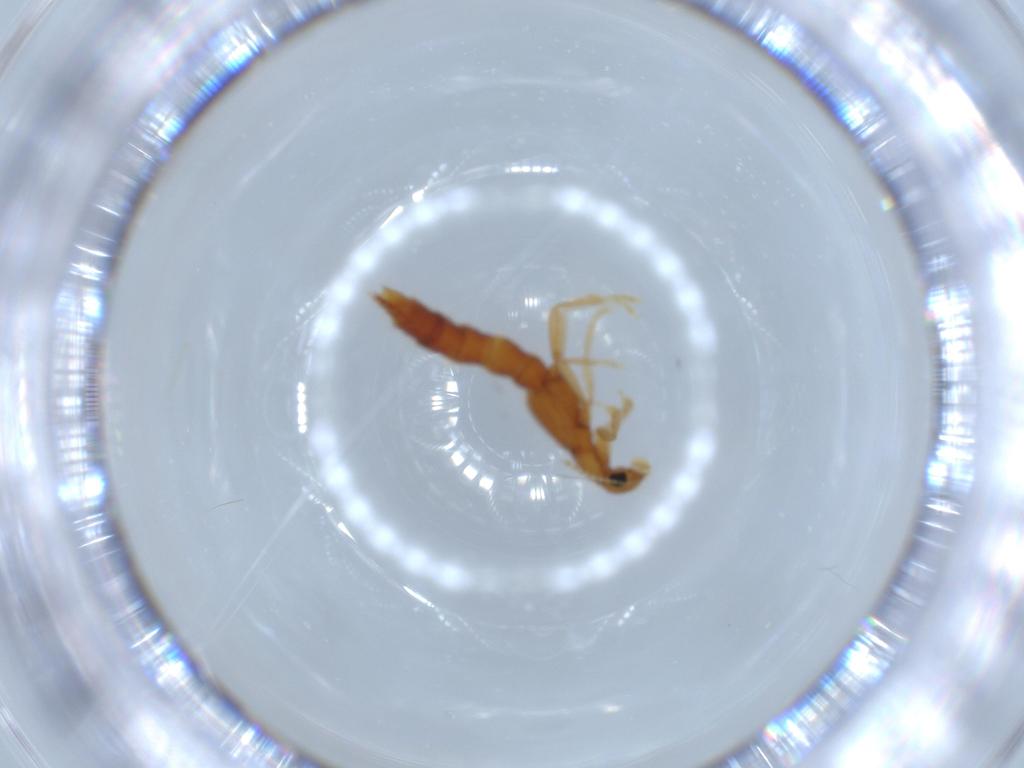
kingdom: Animalia
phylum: Arthropoda
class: Insecta
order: Coleoptera
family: Staphylinidae
